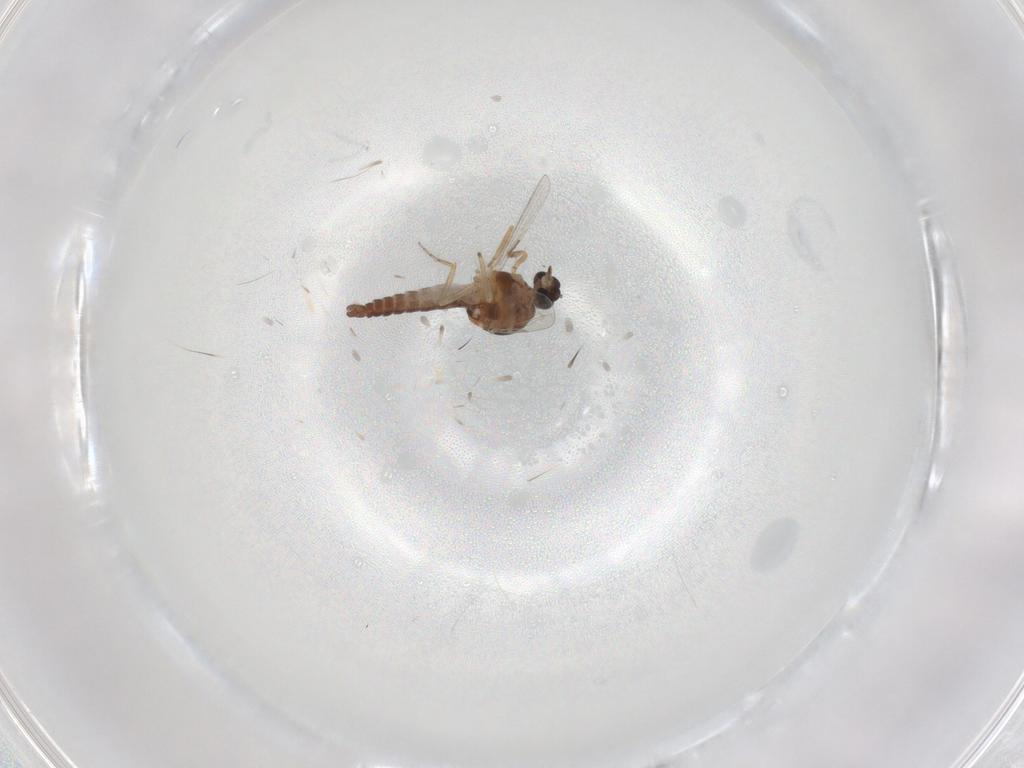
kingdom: Animalia
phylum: Arthropoda
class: Insecta
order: Diptera
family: Ceratopogonidae
